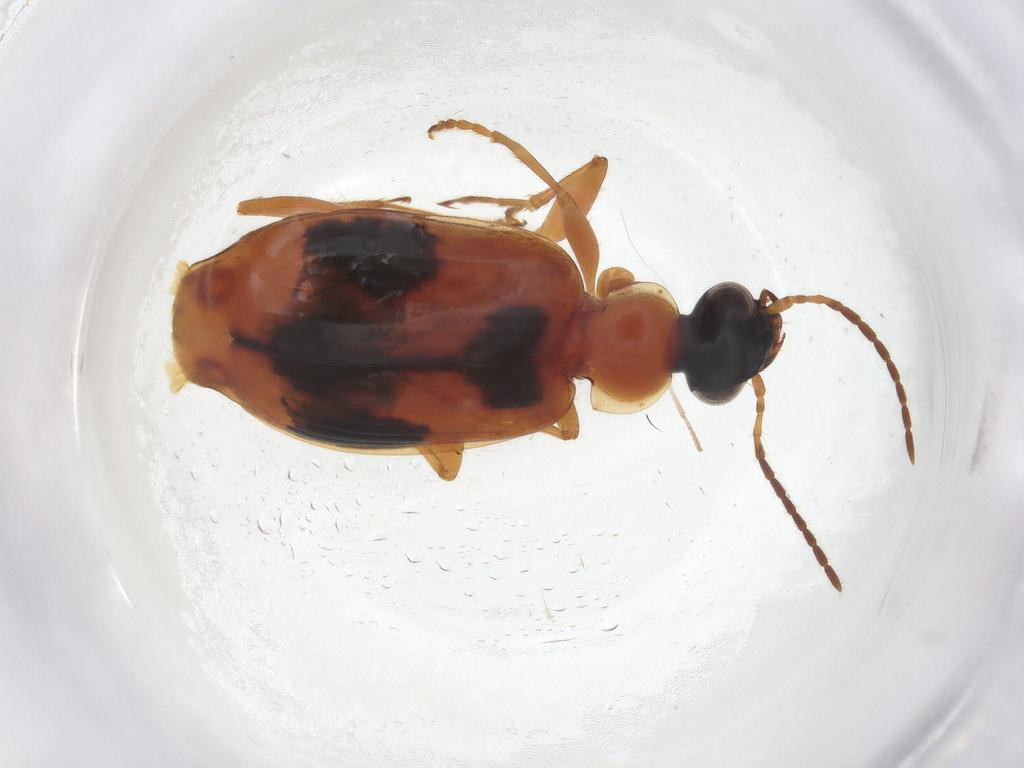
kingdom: Animalia
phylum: Arthropoda
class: Insecta
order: Coleoptera
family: Carabidae
